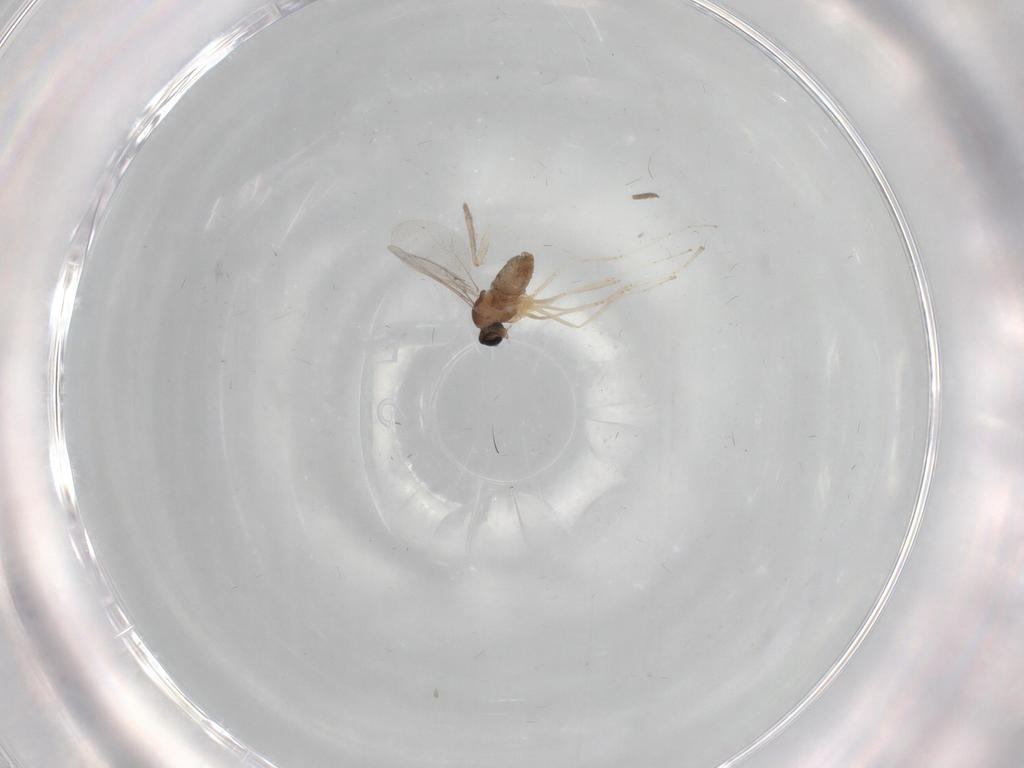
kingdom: Animalia
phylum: Arthropoda
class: Insecta
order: Diptera
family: Cecidomyiidae
